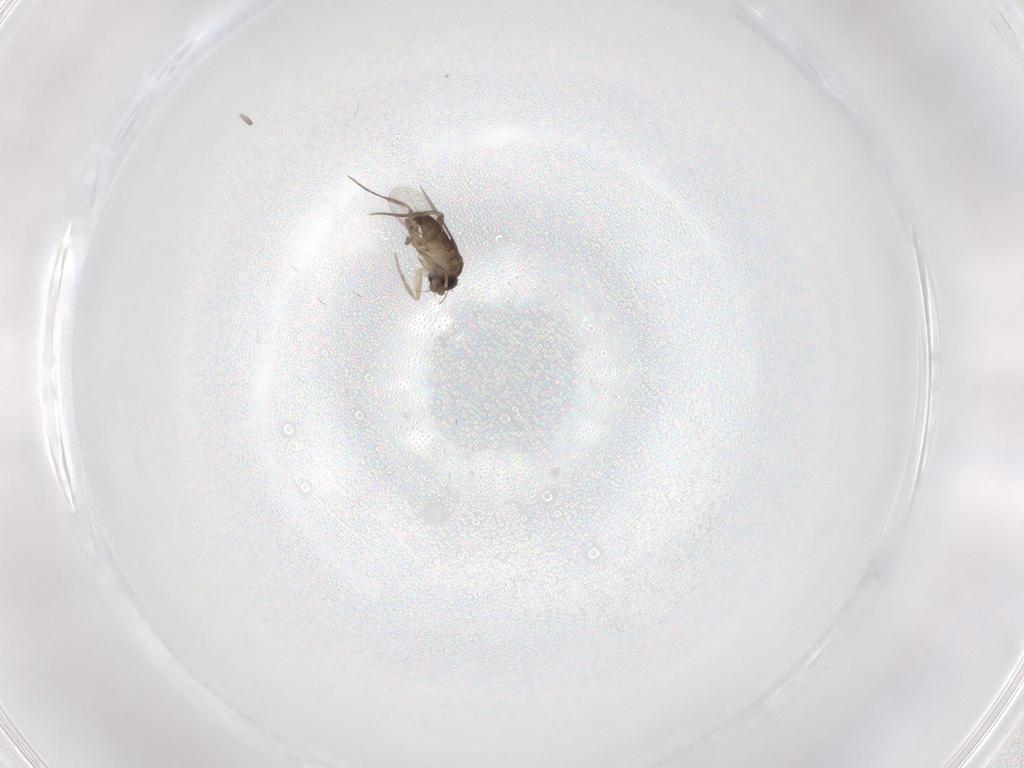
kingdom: Animalia
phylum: Arthropoda
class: Insecta
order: Diptera
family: Phoridae
